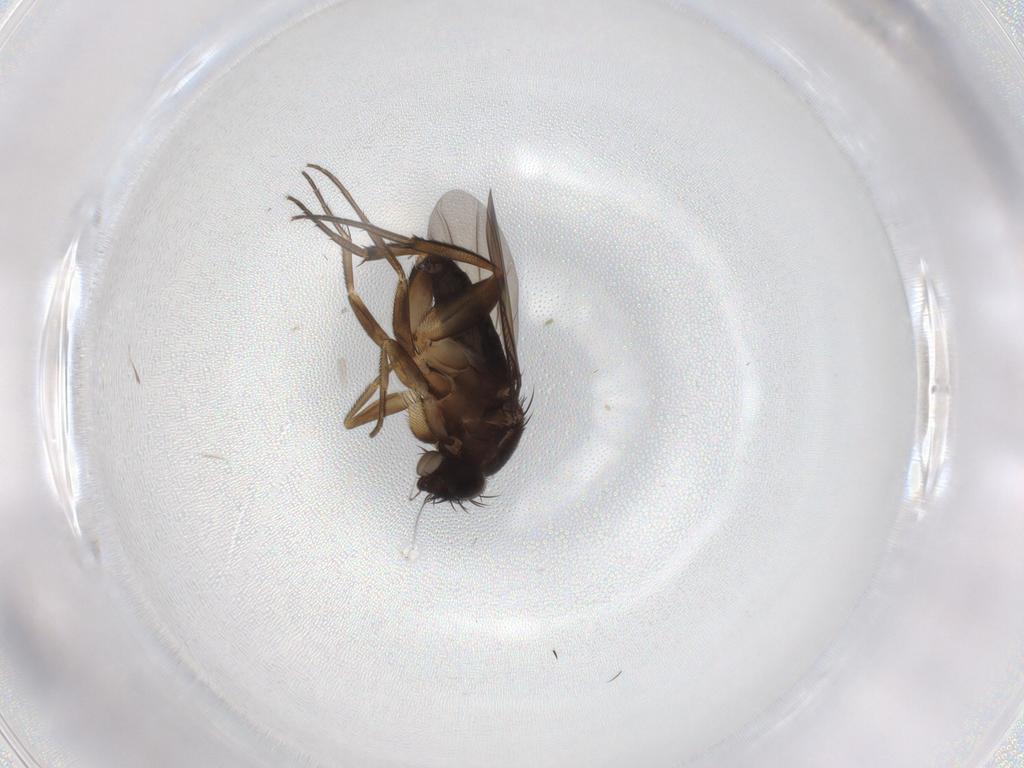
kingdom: Animalia
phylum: Arthropoda
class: Insecta
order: Diptera
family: Phoridae
